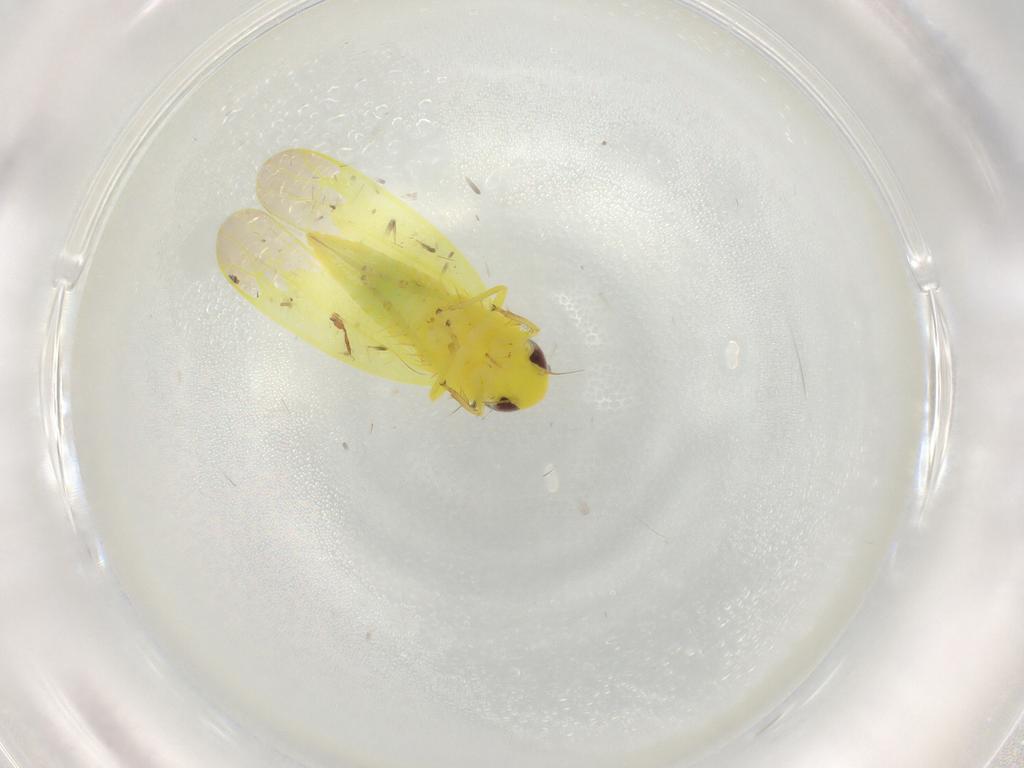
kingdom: Animalia
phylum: Arthropoda
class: Insecta
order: Hemiptera
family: Cicadellidae
